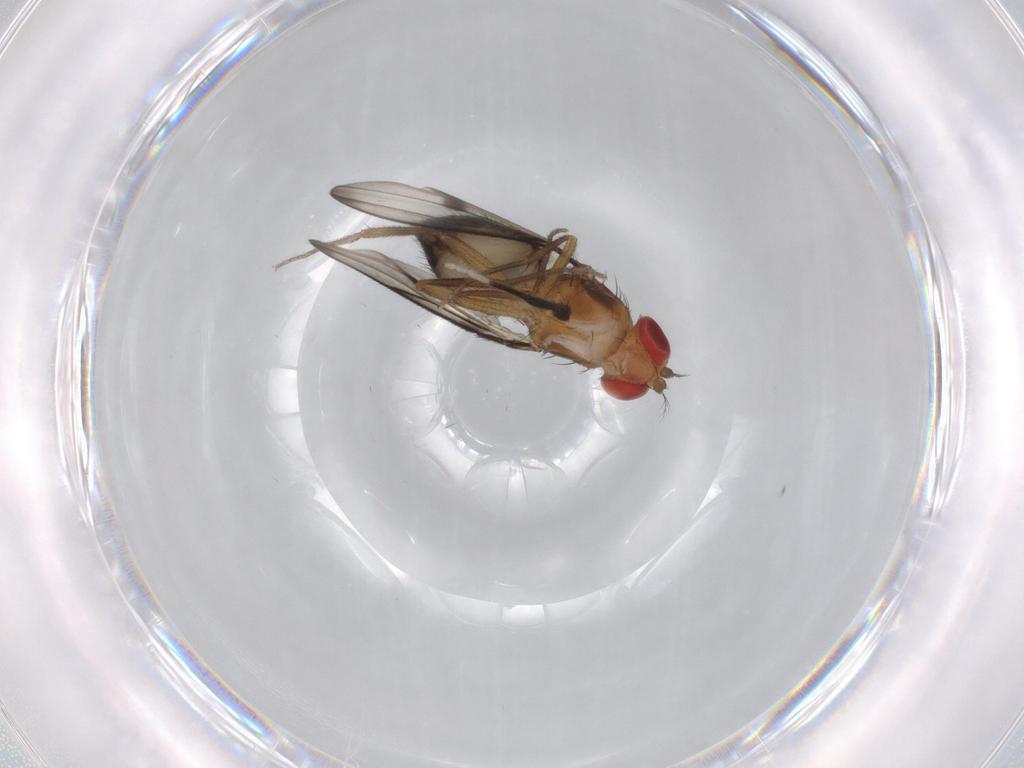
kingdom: Animalia
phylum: Arthropoda
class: Insecta
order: Diptera
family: Drosophilidae
